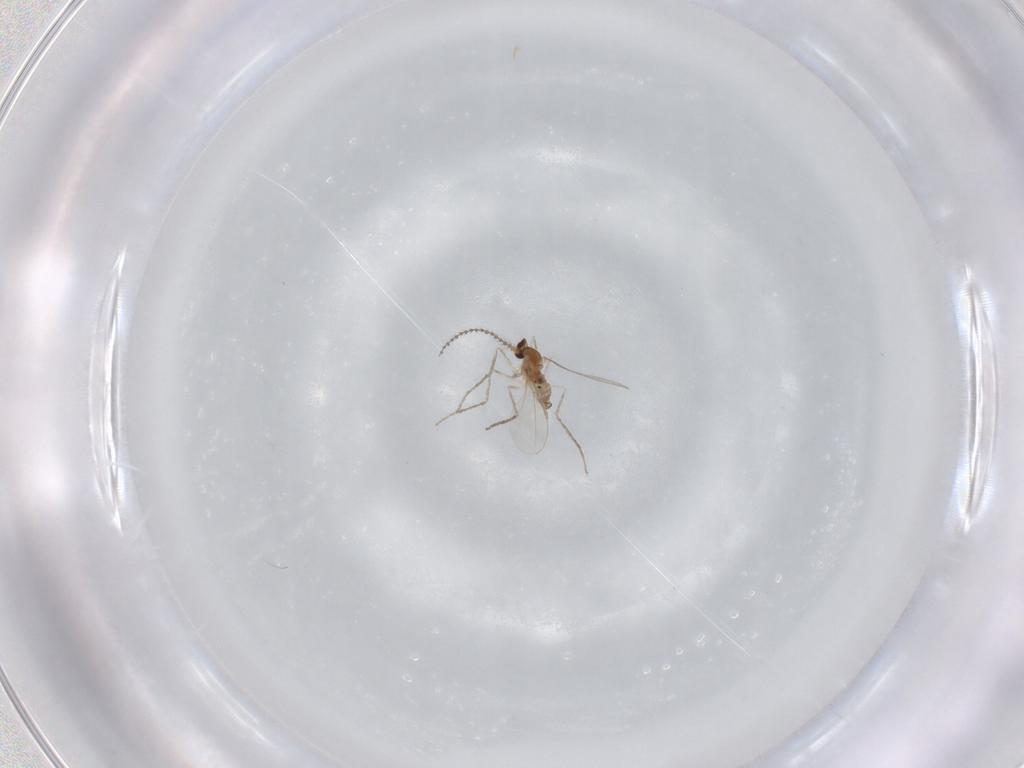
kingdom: Animalia
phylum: Arthropoda
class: Insecta
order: Diptera
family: Cecidomyiidae
